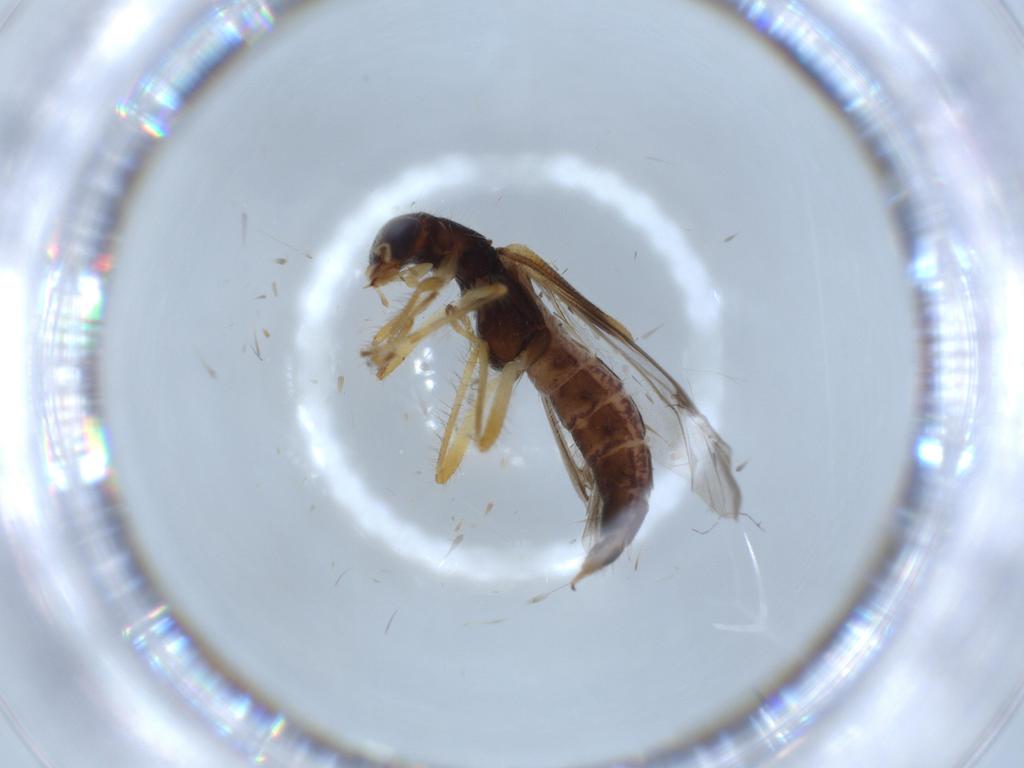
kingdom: Animalia
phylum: Arthropoda
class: Insecta
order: Coleoptera
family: Cleridae
